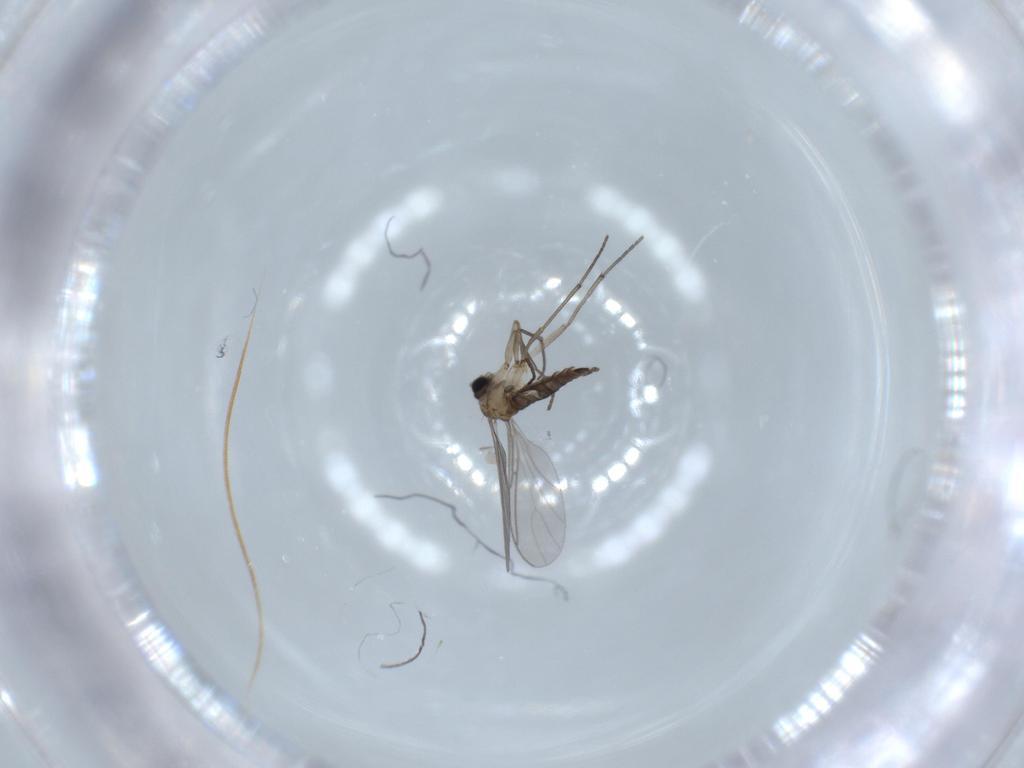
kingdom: Animalia
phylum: Arthropoda
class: Insecta
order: Diptera
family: Sciaridae
